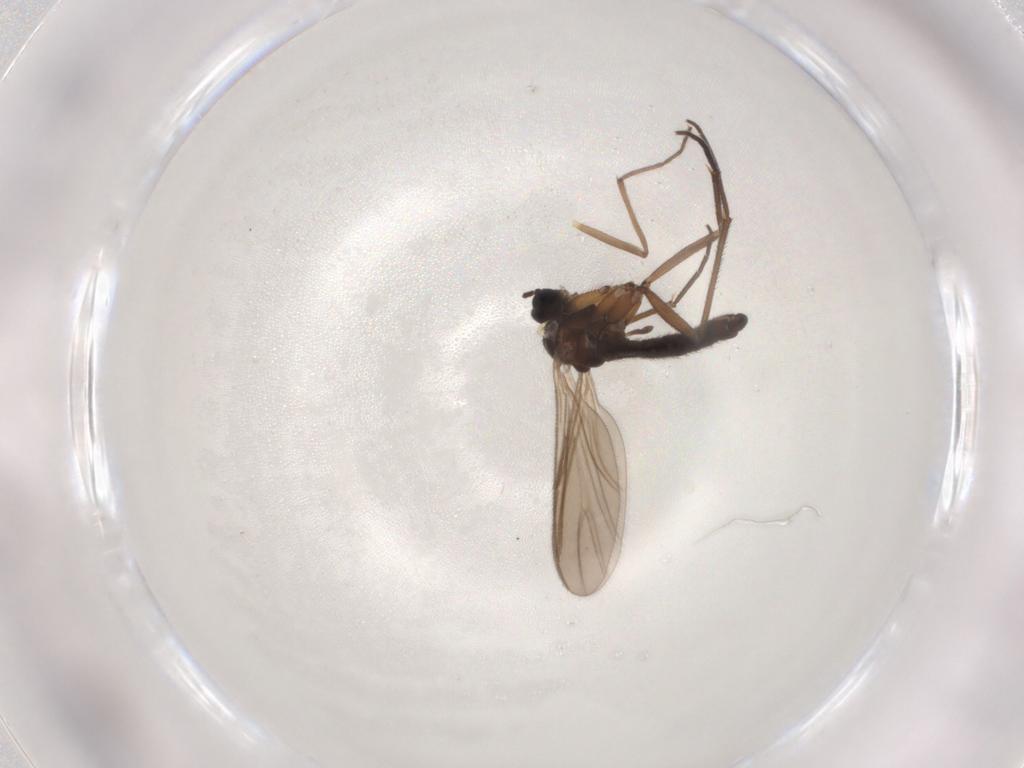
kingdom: Animalia
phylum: Arthropoda
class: Insecta
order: Diptera
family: Sciaridae
